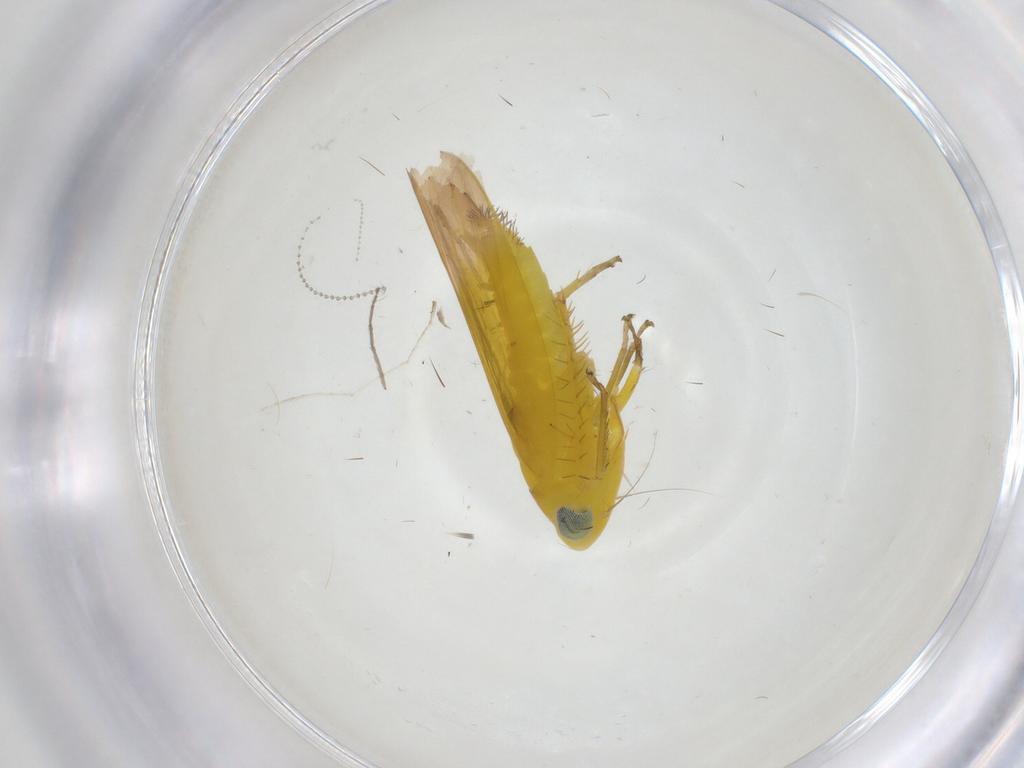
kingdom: Animalia
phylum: Arthropoda
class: Insecta
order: Hemiptera
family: Cicadellidae
